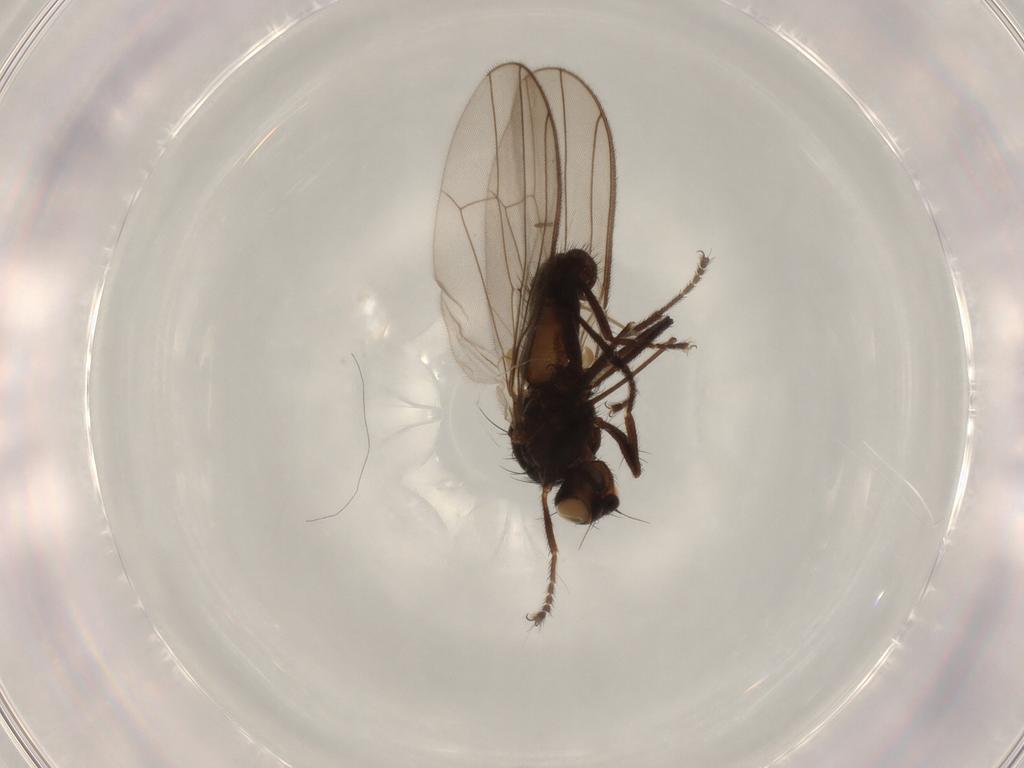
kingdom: Animalia
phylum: Arthropoda
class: Insecta
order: Diptera
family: Heleomyzidae
